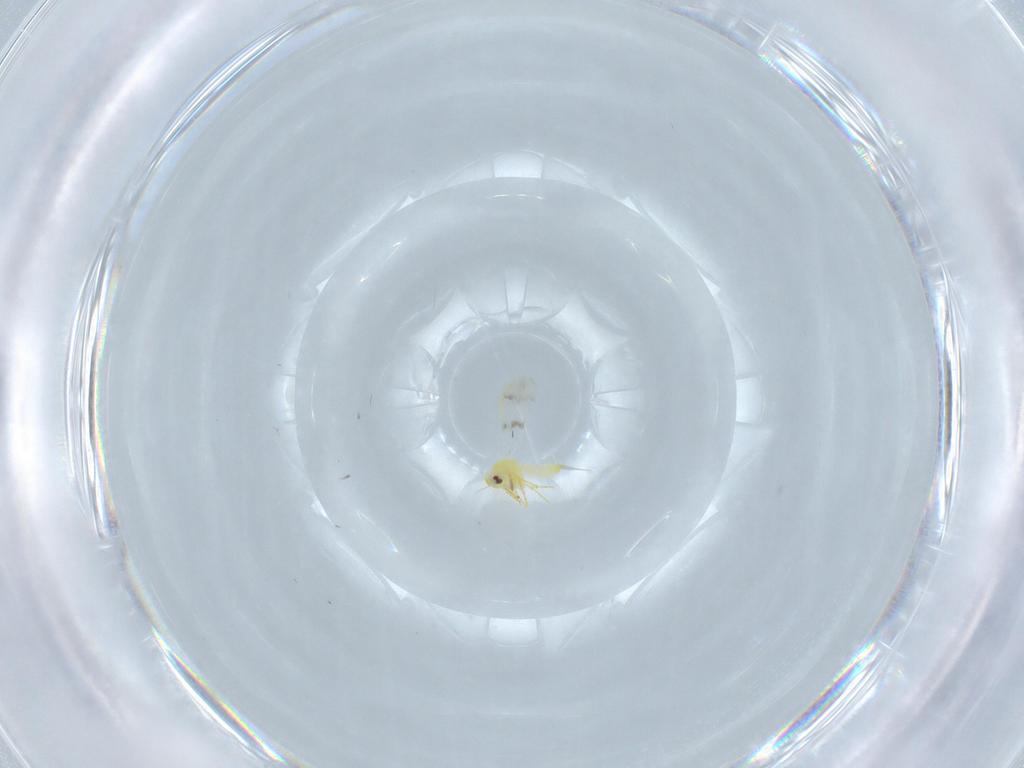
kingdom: Animalia
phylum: Arthropoda
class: Insecta
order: Hemiptera
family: Aleyrodidae
